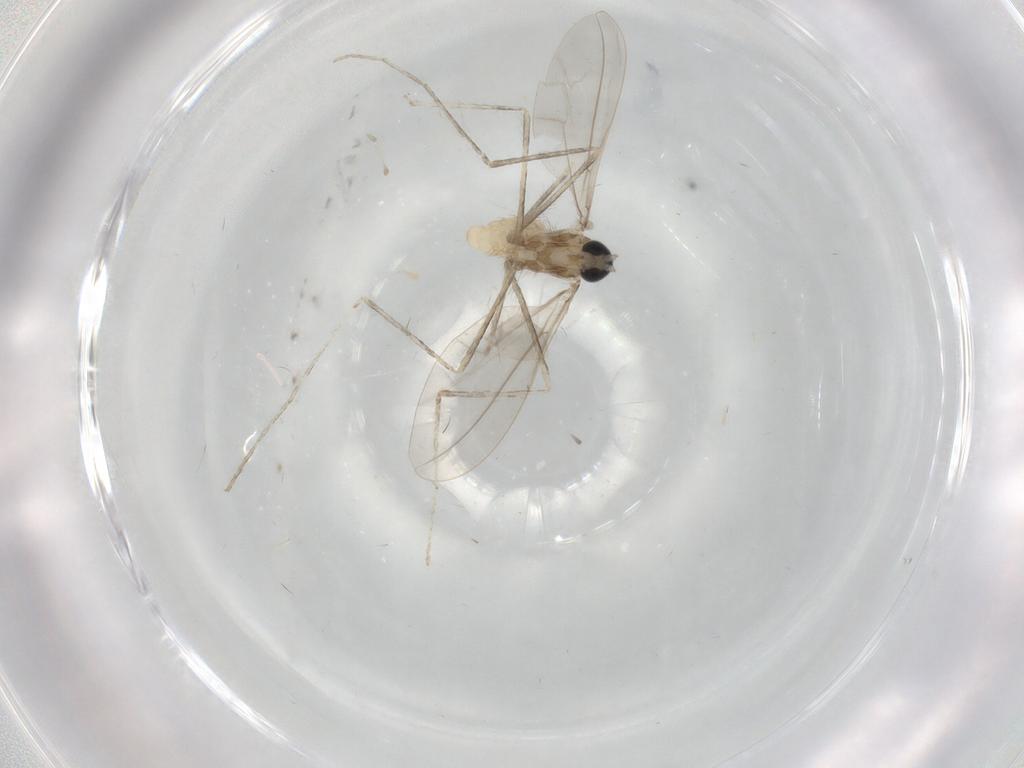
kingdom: Animalia
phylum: Arthropoda
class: Insecta
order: Diptera
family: Cecidomyiidae
